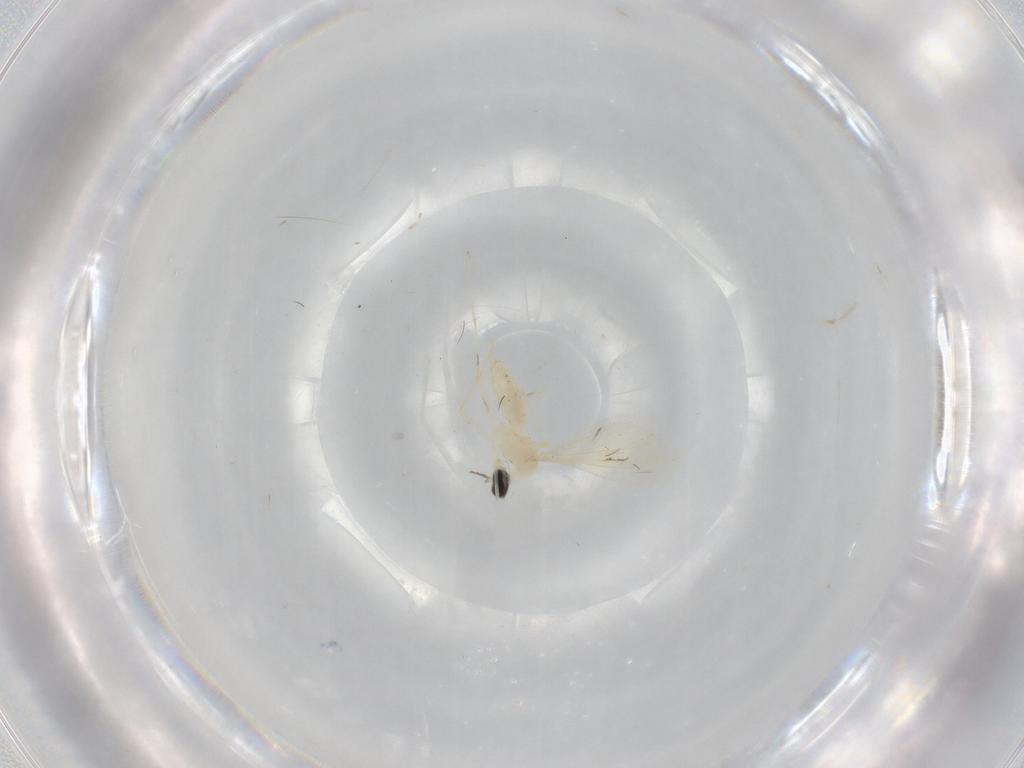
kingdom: Animalia
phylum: Arthropoda
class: Insecta
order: Diptera
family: Cecidomyiidae
